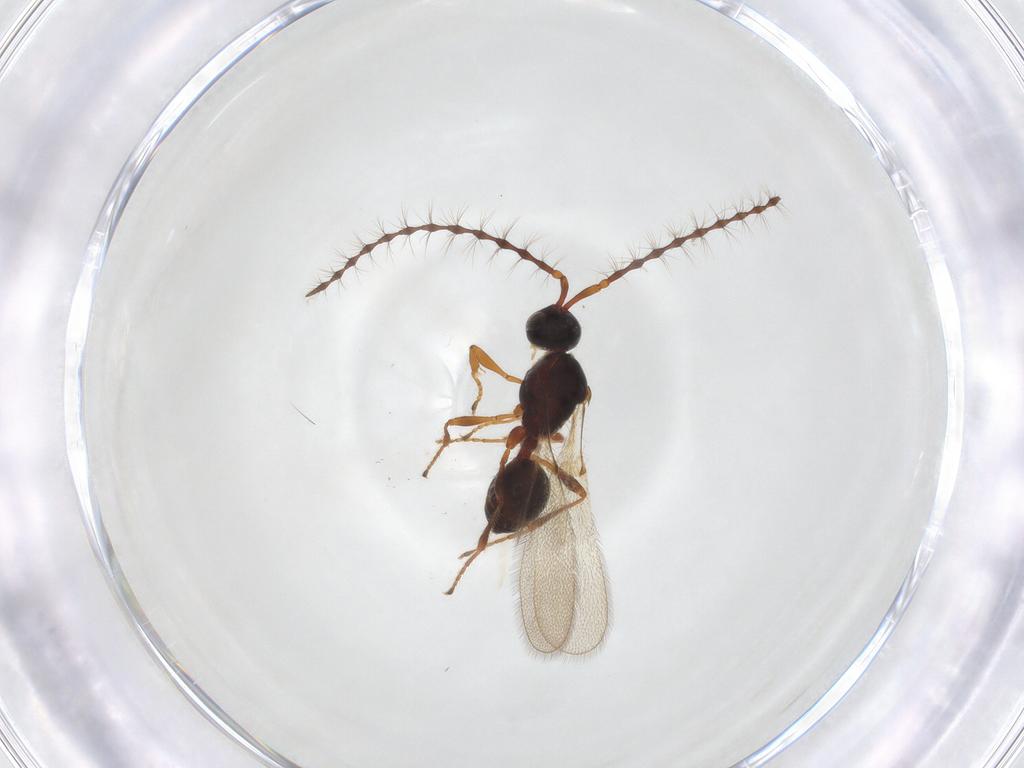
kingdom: Animalia
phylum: Arthropoda
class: Insecta
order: Hymenoptera
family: Diapriidae
